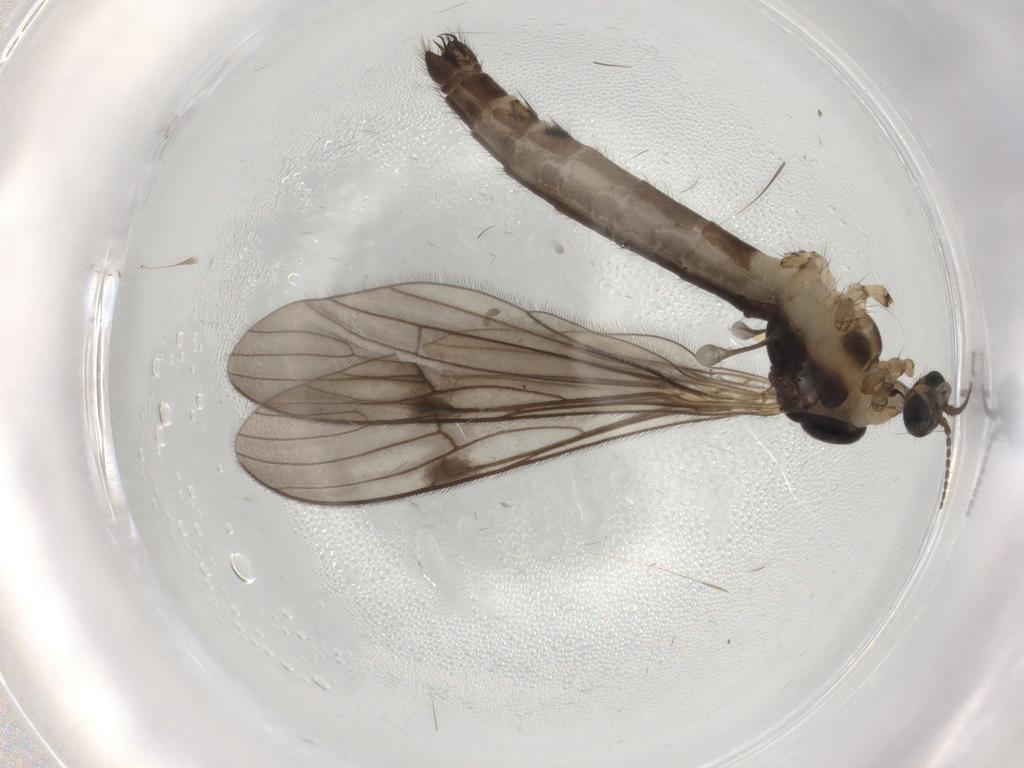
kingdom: Animalia
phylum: Arthropoda
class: Insecta
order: Diptera
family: Drosophilidae
